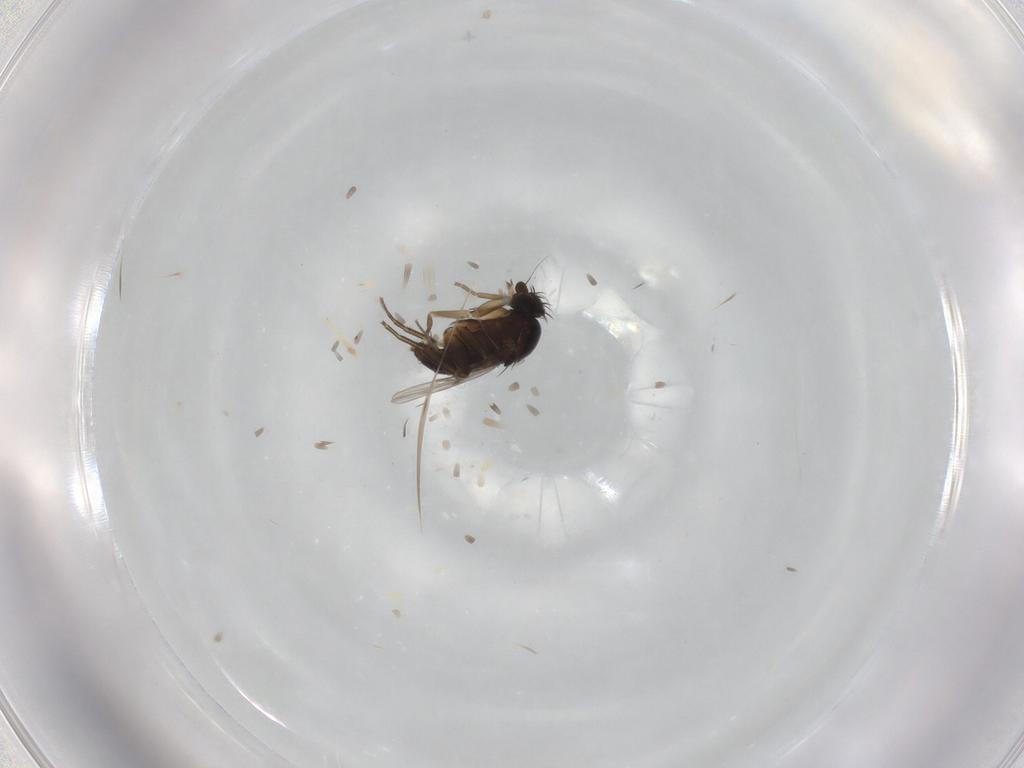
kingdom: Animalia
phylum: Arthropoda
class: Insecta
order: Diptera
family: Phoridae
